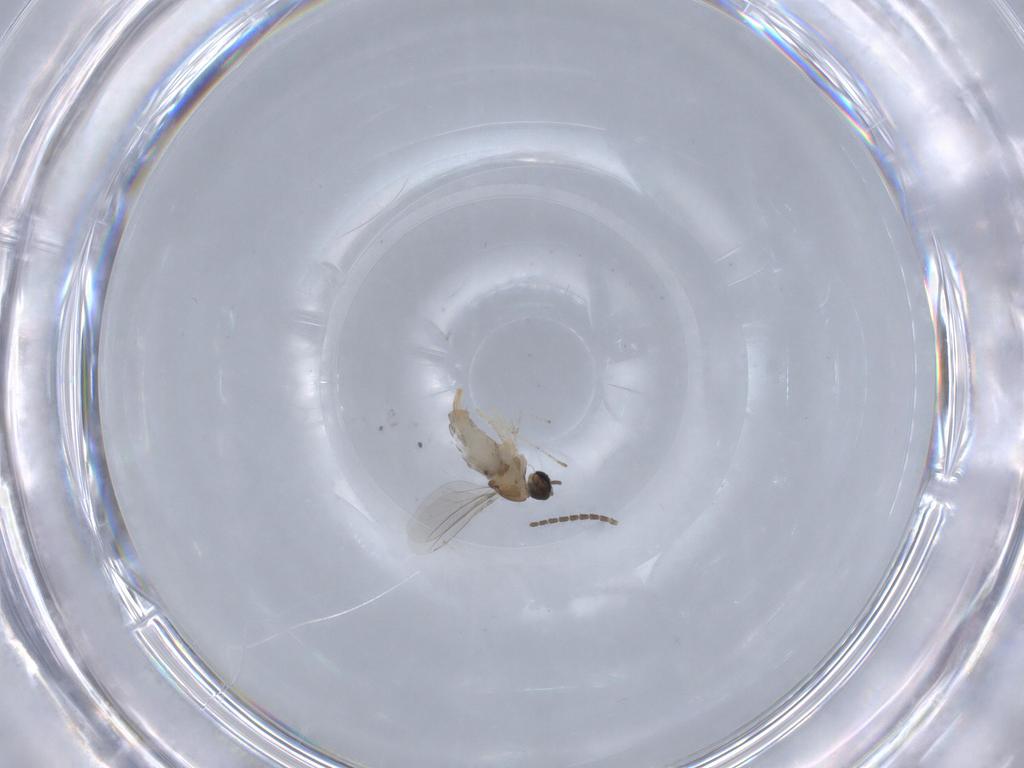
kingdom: Animalia
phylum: Arthropoda
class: Insecta
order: Diptera
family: Cecidomyiidae
